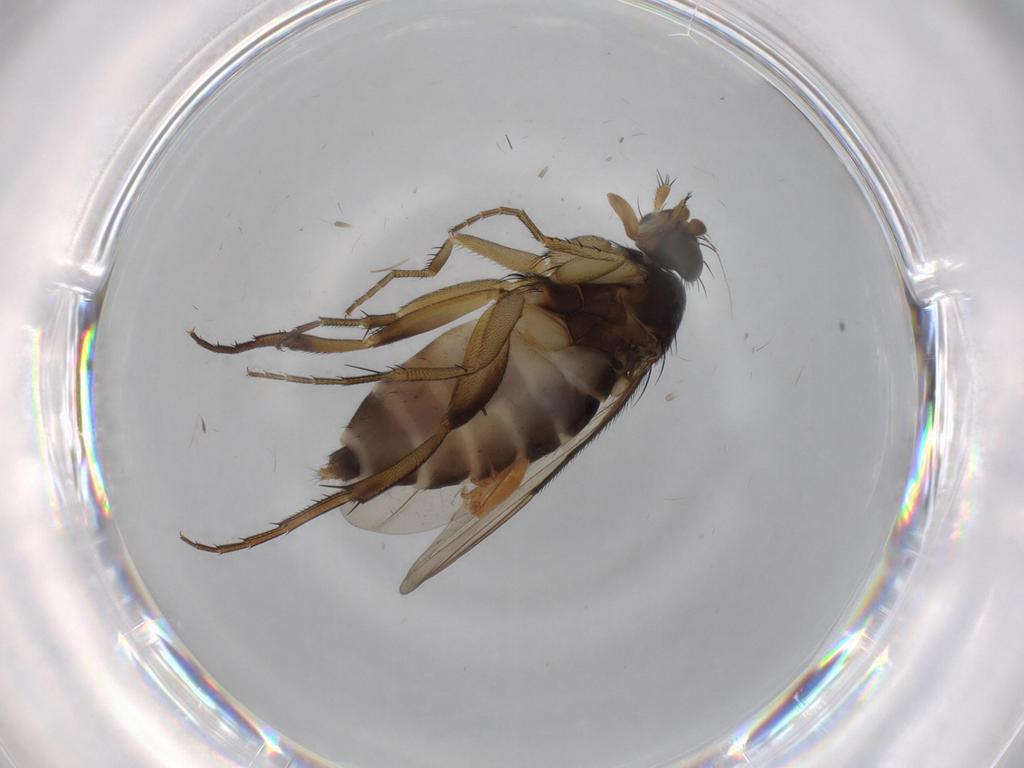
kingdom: Animalia
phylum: Arthropoda
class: Insecta
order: Diptera
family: Phoridae
